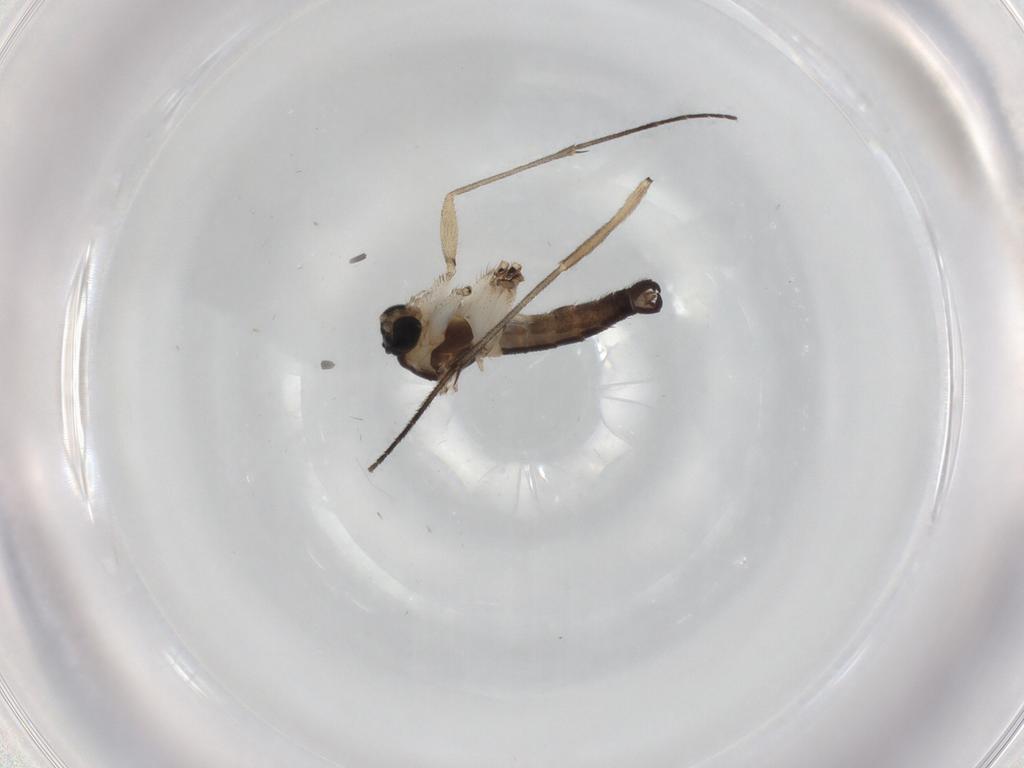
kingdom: Animalia
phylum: Arthropoda
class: Insecta
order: Diptera
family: Sciaridae
